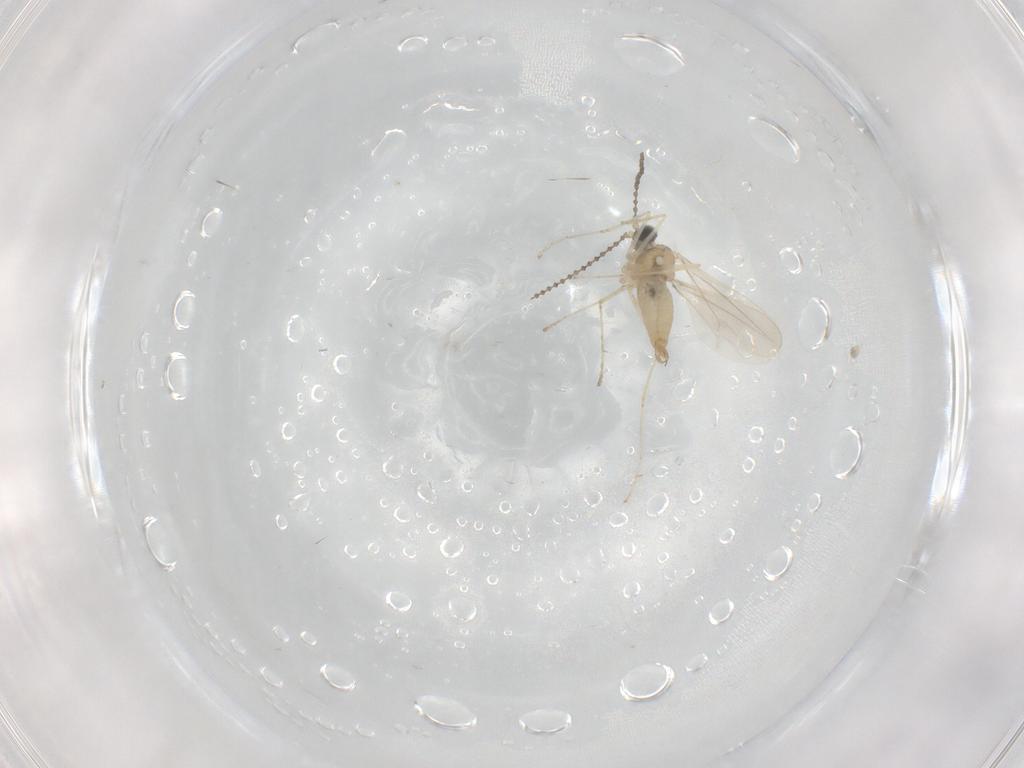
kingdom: Animalia
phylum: Arthropoda
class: Insecta
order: Diptera
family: Cecidomyiidae
